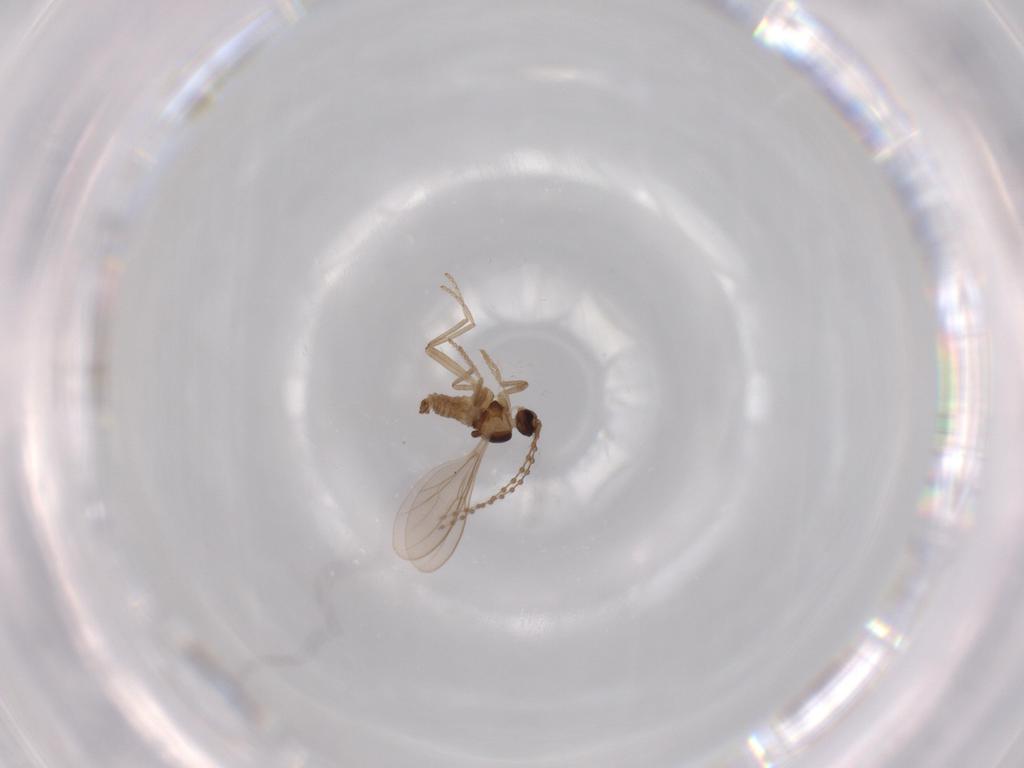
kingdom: Animalia
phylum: Arthropoda
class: Insecta
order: Diptera
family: Cecidomyiidae
